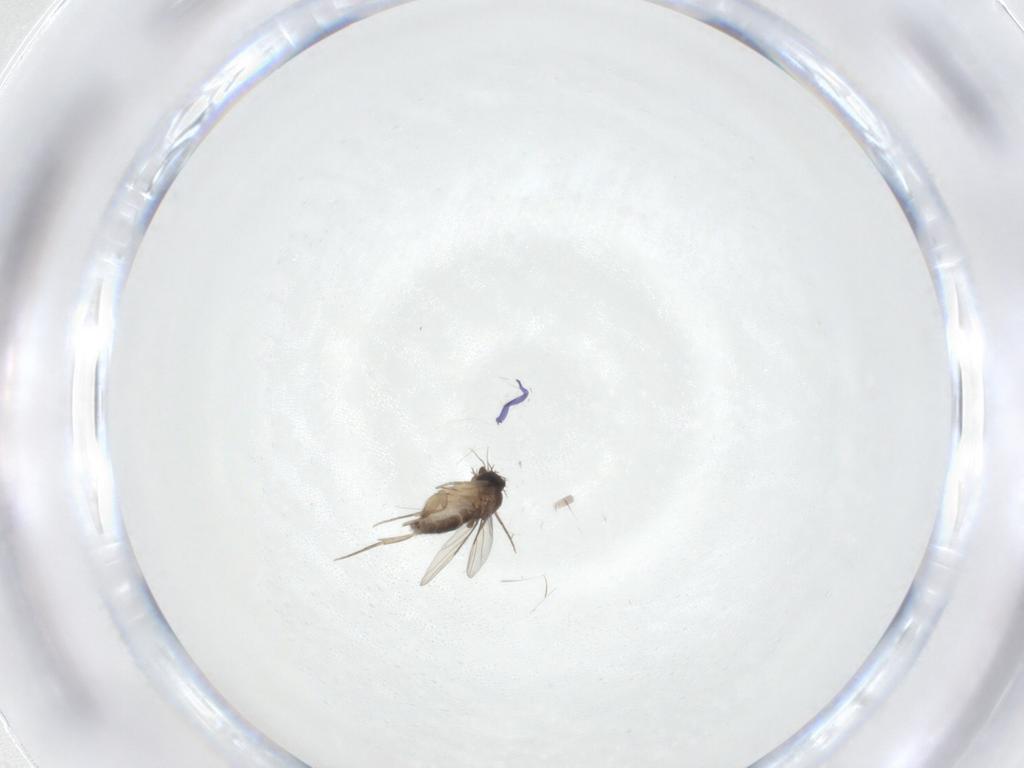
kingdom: Animalia
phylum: Arthropoda
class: Insecta
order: Diptera
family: Phoridae
